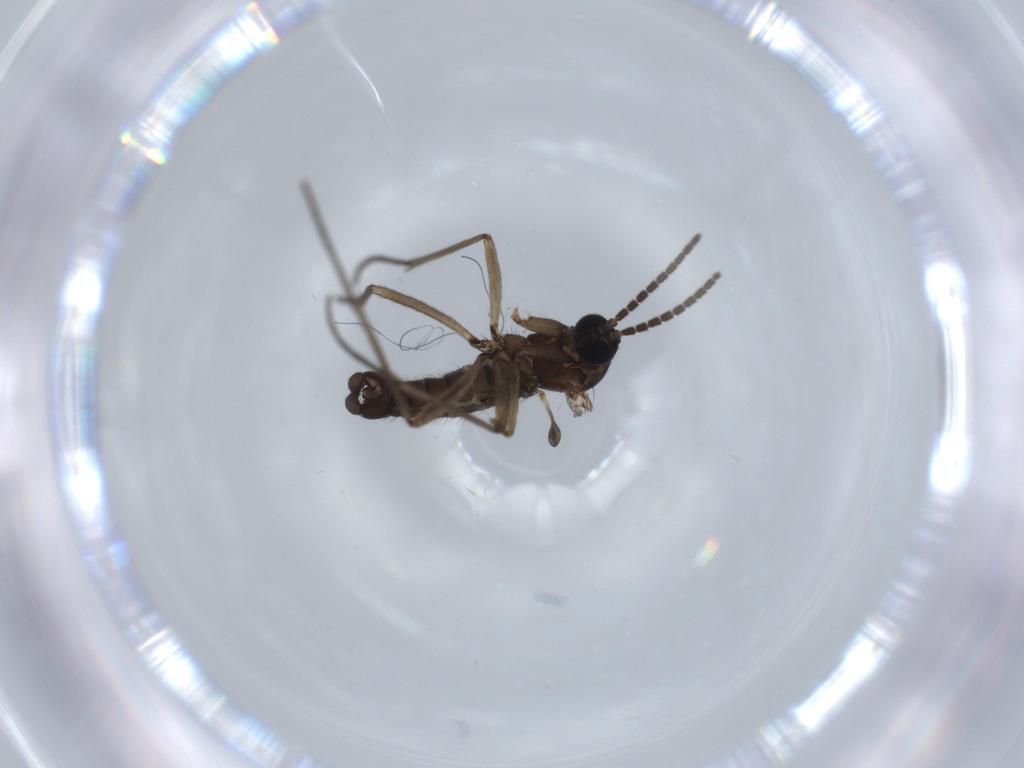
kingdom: Animalia
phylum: Arthropoda
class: Insecta
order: Diptera
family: Sciaridae
